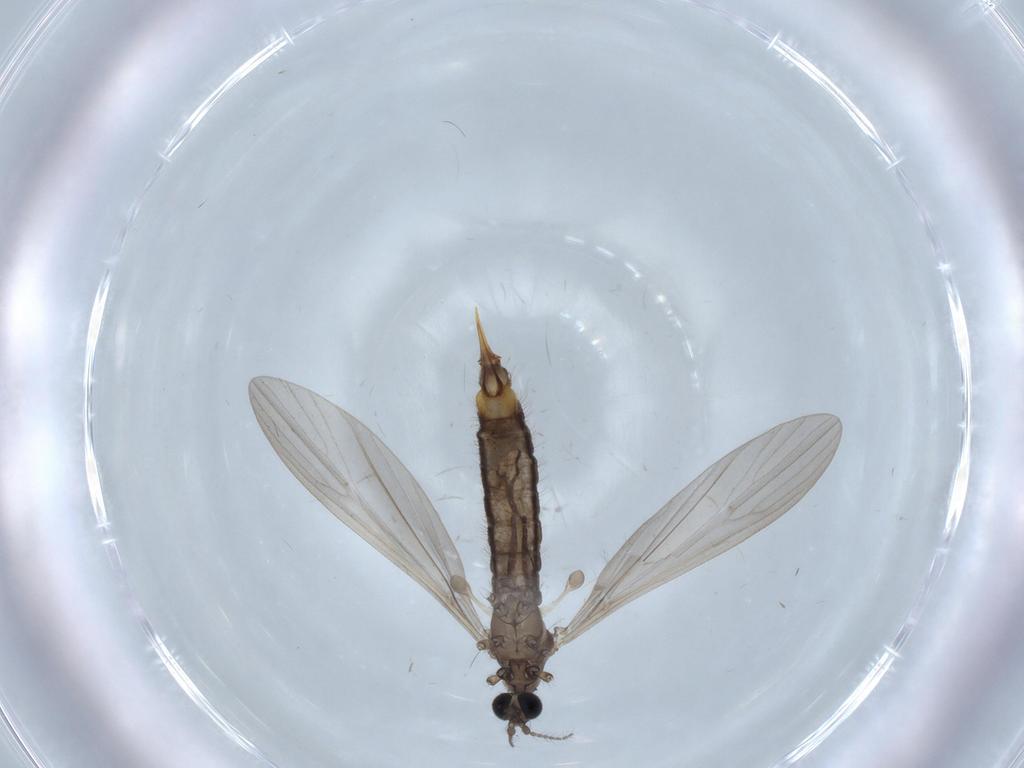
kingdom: Animalia
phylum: Arthropoda
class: Insecta
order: Diptera
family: Limoniidae
